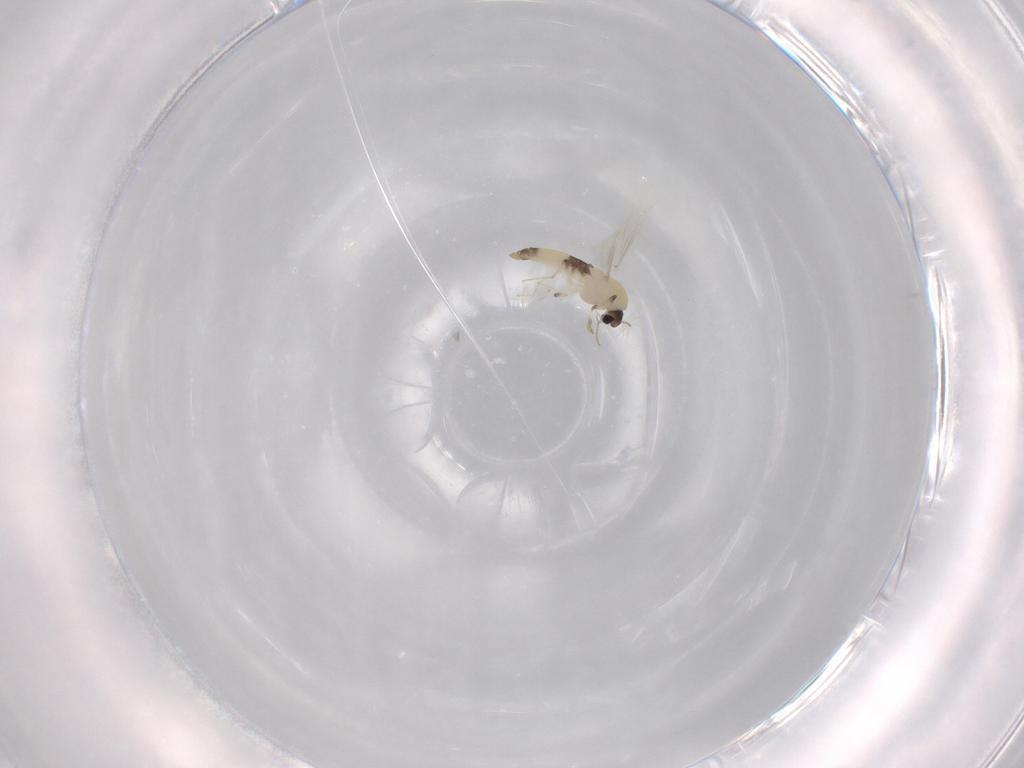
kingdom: Animalia
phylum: Arthropoda
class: Insecta
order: Diptera
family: Chironomidae
